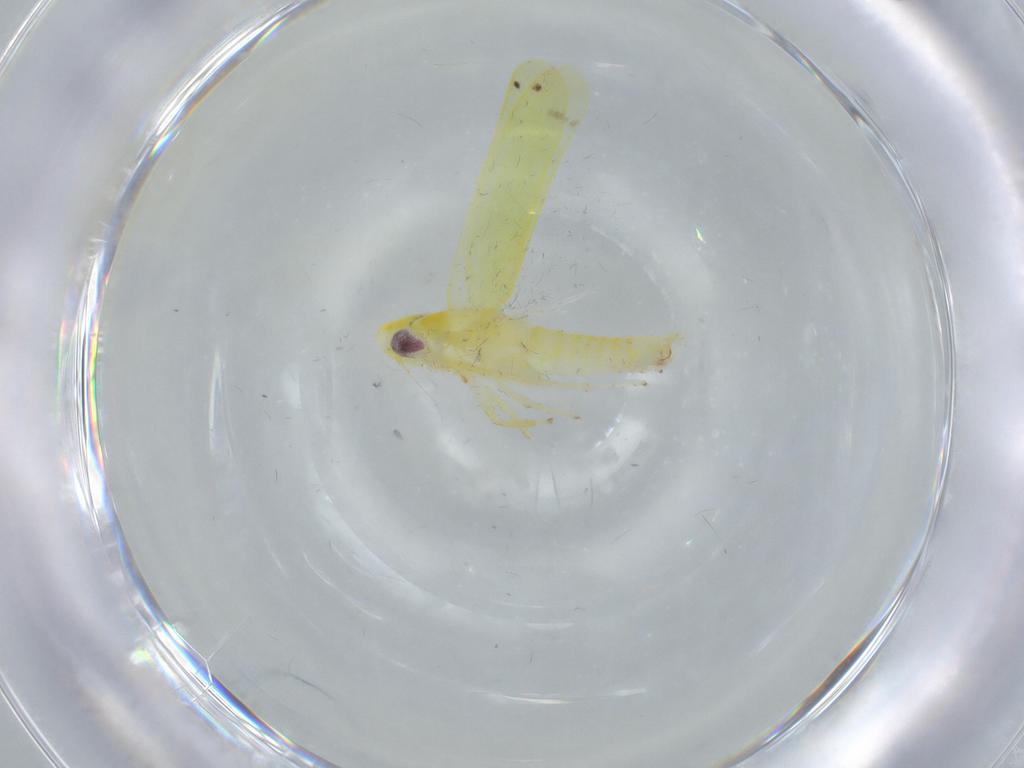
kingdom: Animalia
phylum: Arthropoda
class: Insecta
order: Hemiptera
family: Cicadellidae
